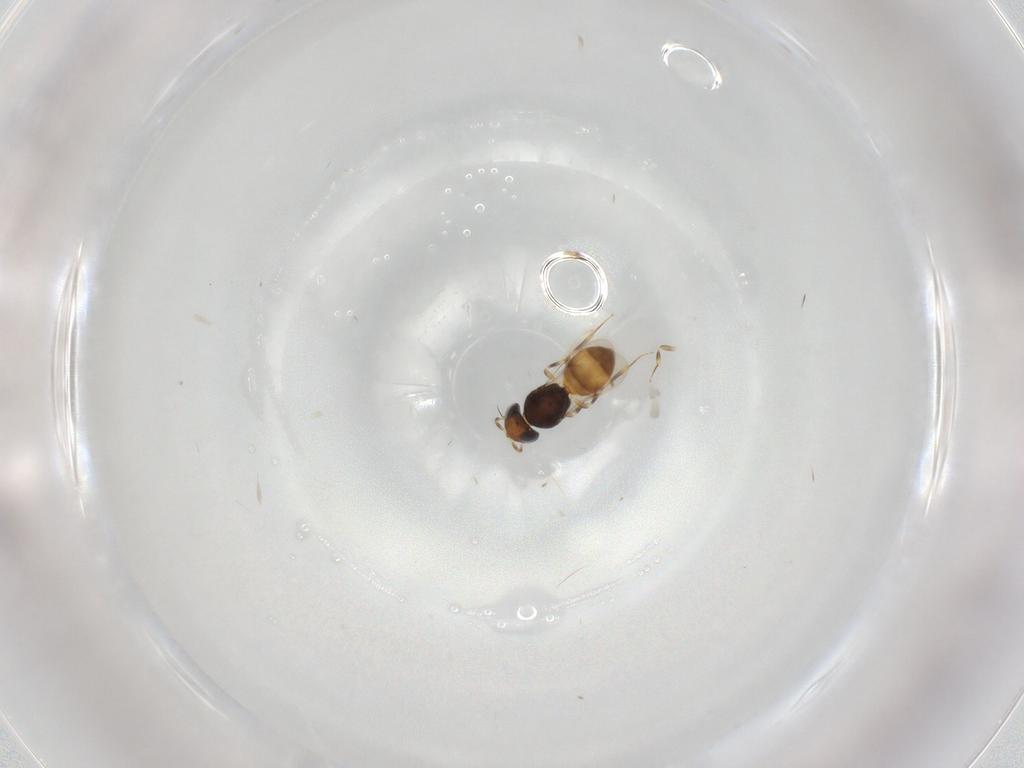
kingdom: Animalia
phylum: Arthropoda
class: Insecta
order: Hymenoptera
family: Scelionidae
